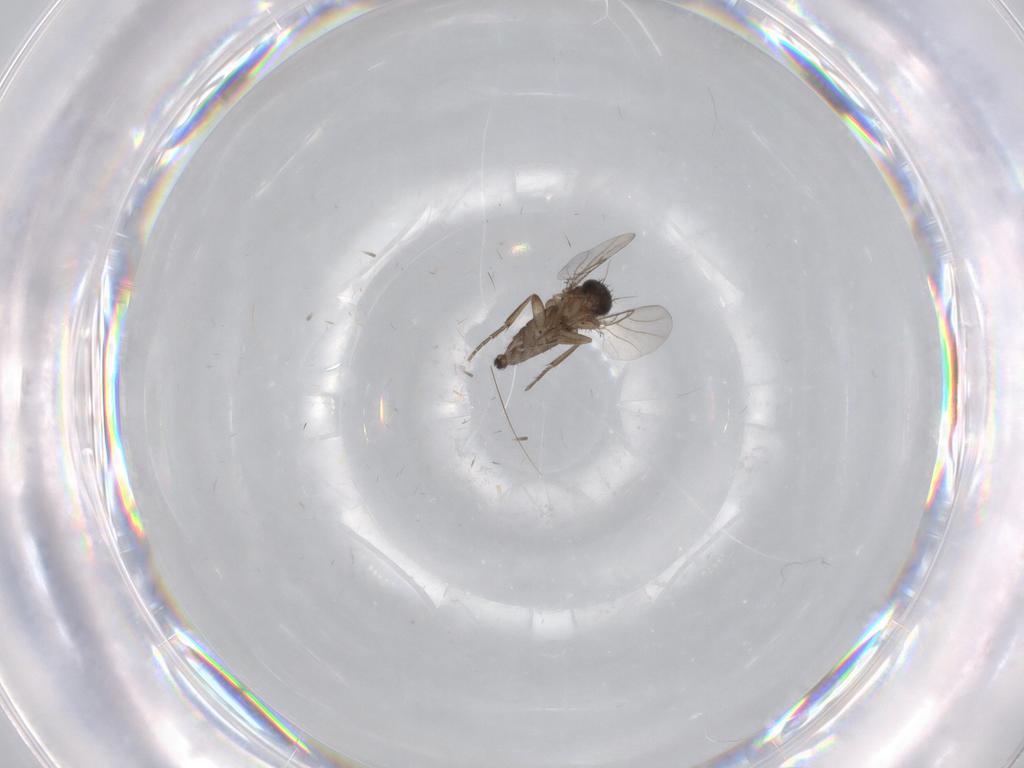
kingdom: Animalia
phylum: Arthropoda
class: Insecta
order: Diptera
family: Phoridae
